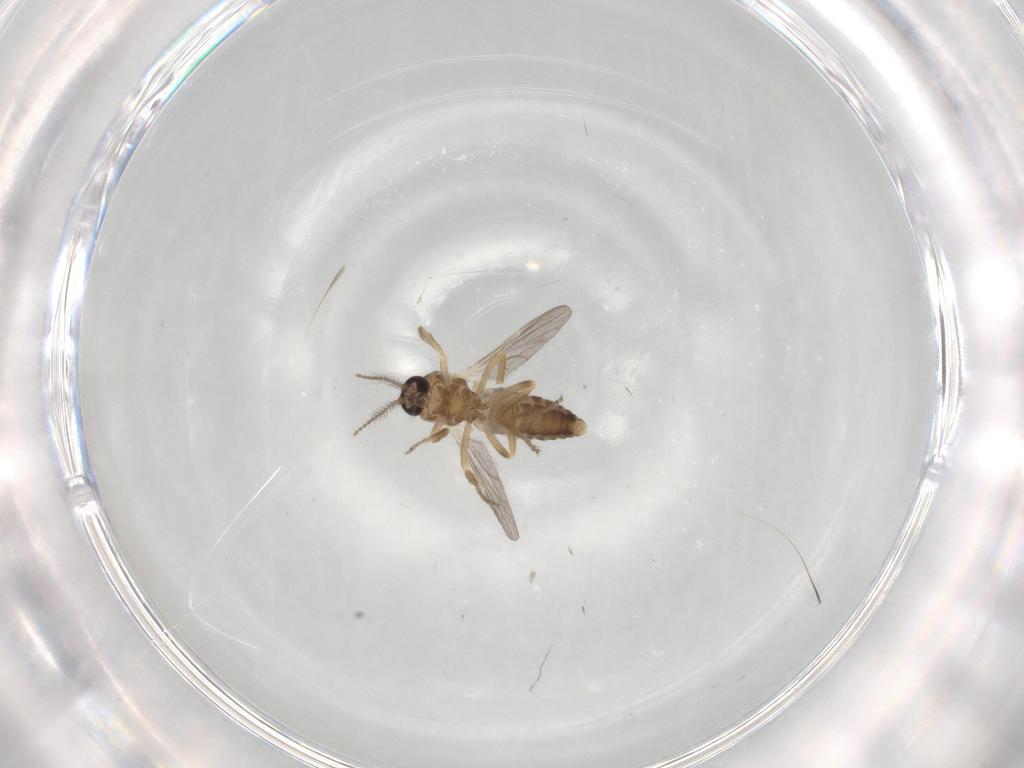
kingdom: Animalia
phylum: Arthropoda
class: Insecta
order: Diptera
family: Ceratopogonidae
